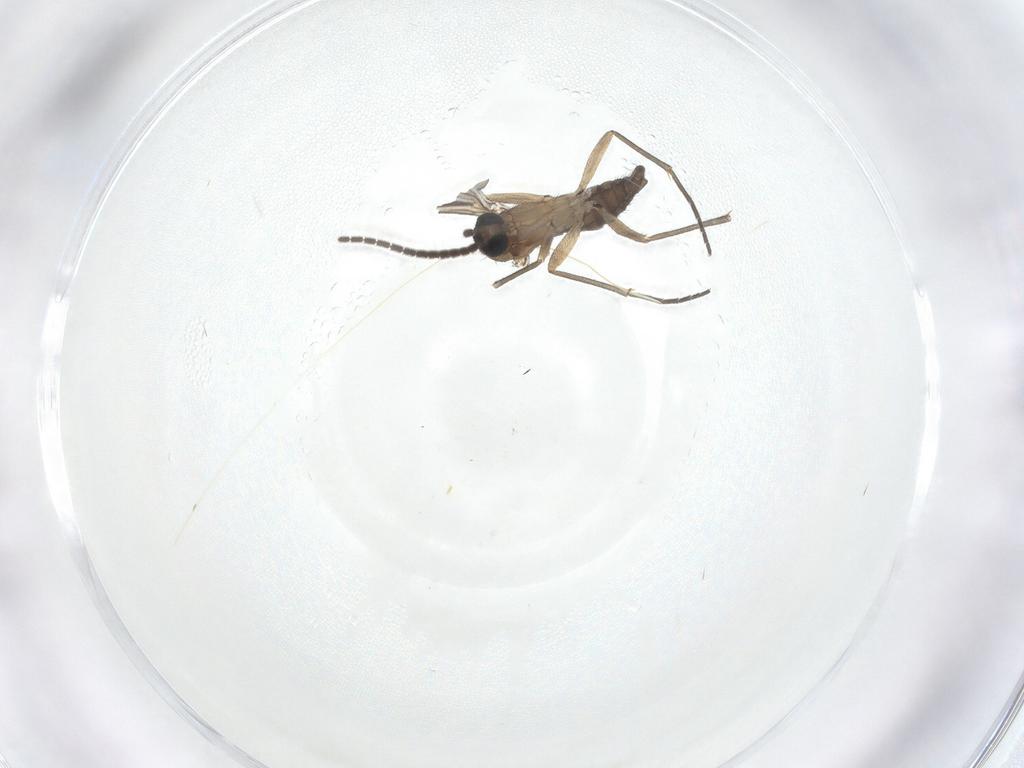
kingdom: Animalia
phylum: Arthropoda
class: Insecta
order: Diptera
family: Sciaridae
